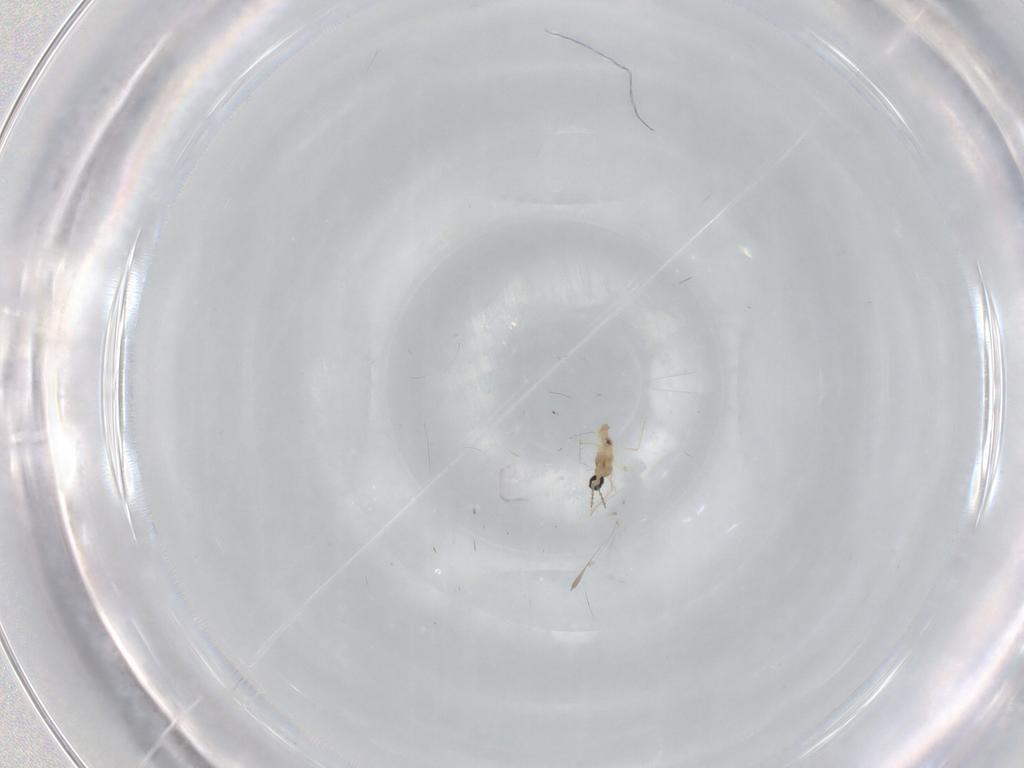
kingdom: Animalia
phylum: Arthropoda
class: Insecta
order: Diptera
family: Cecidomyiidae
